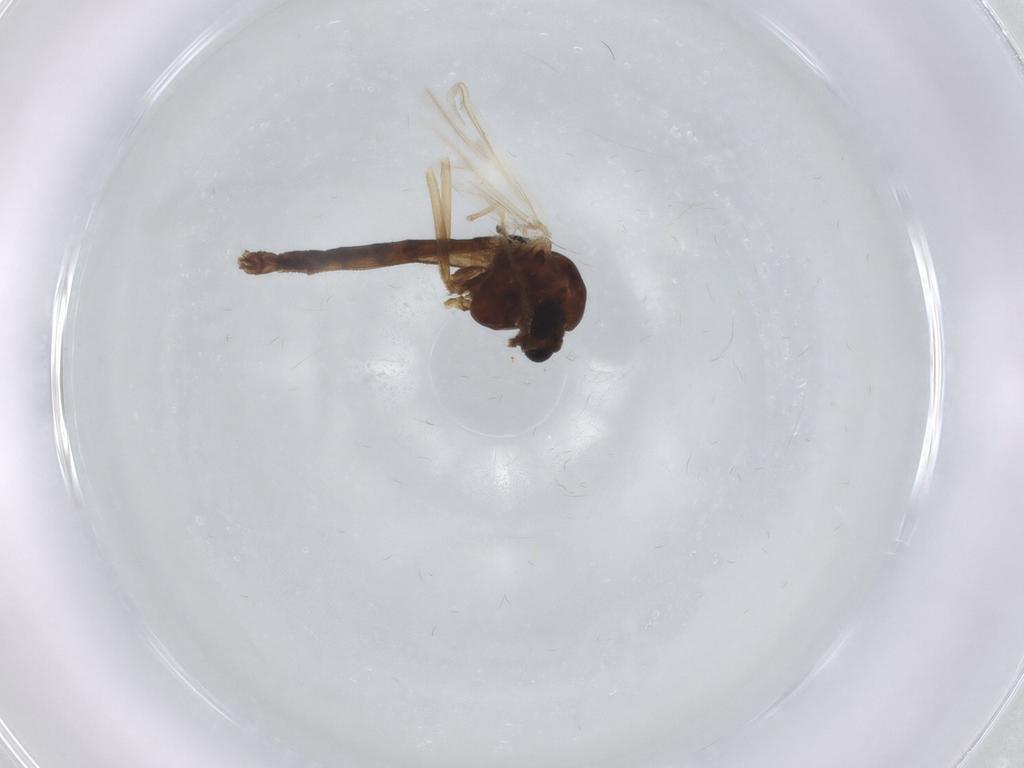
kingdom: Animalia
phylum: Arthropoda
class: Insecta
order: Diptera
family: Chironomidae
